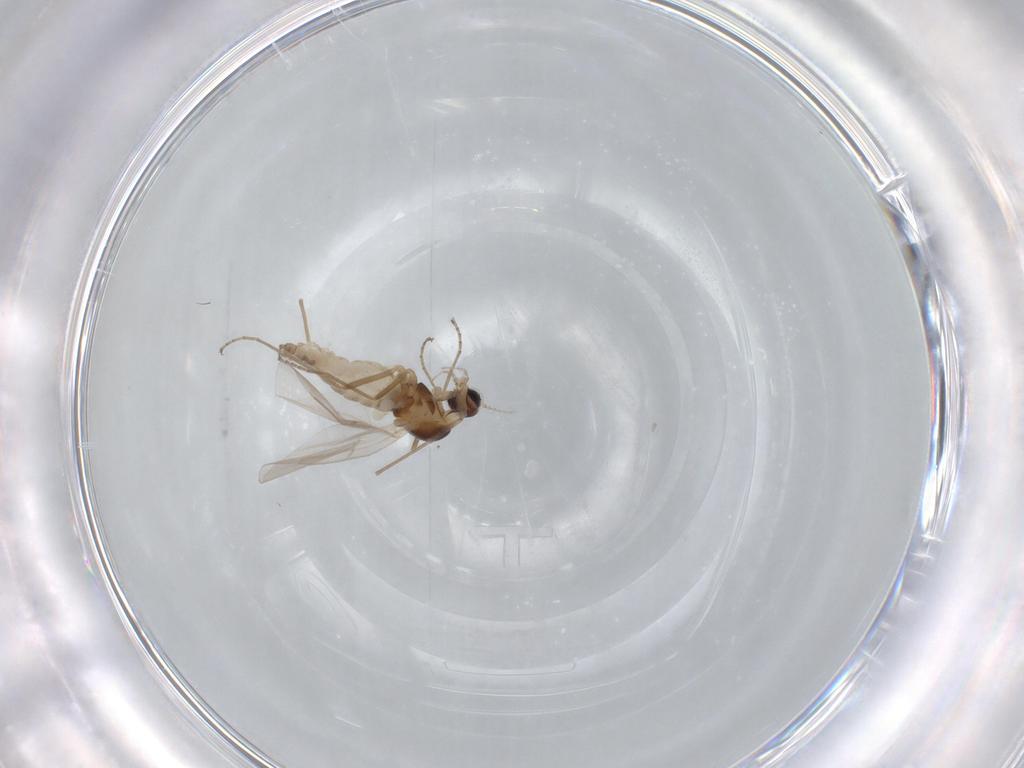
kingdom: Animalia
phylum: Arthropoda
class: Insecta
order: Diptera
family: Cecidomyiidae
